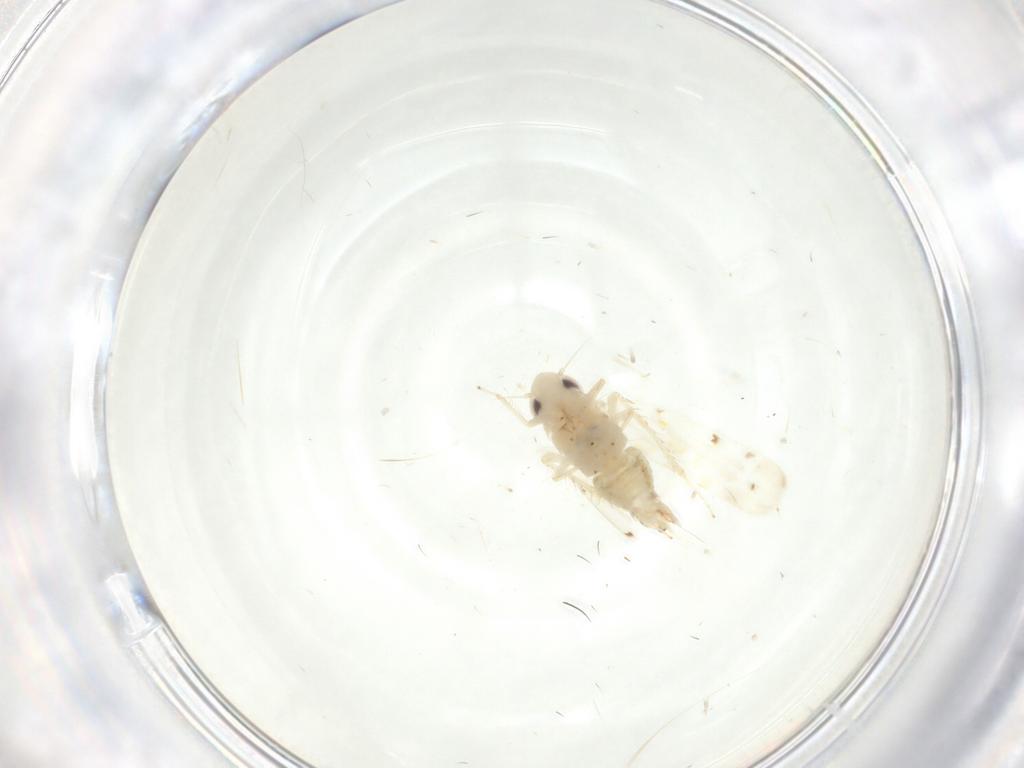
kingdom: Animalia
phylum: Arthropoda
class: Insecta
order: Hemiptera
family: Cicadellidae
